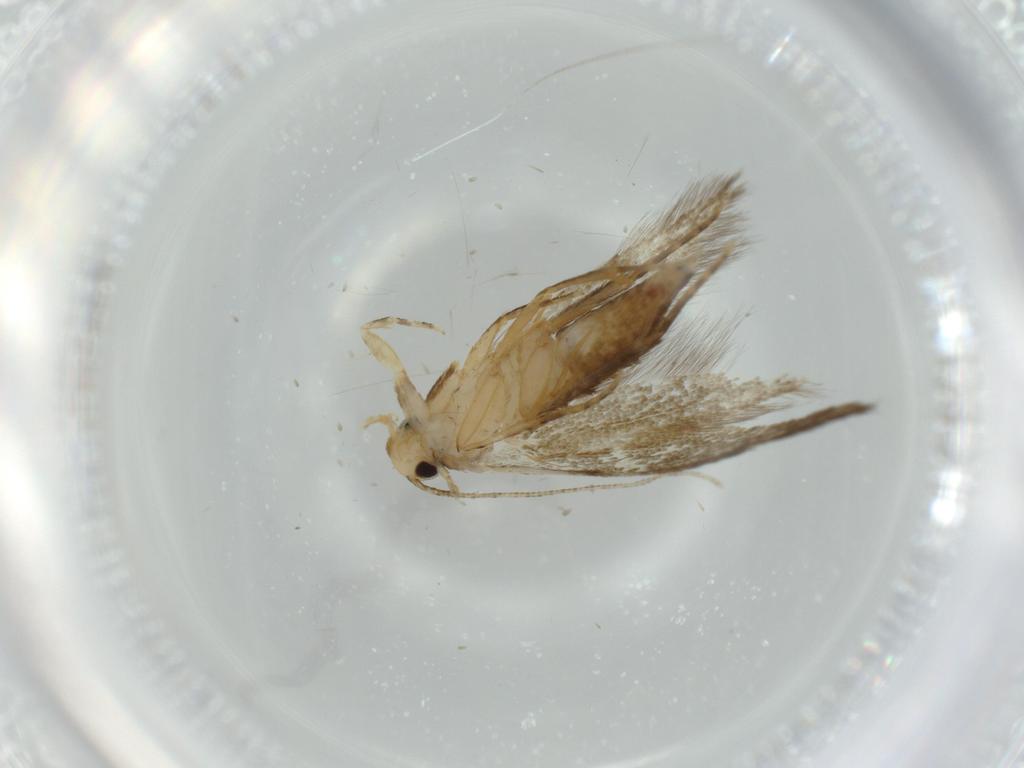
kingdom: Animalia
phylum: Arthropoda
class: Insecta
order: Lepidoptera
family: Tineidae
